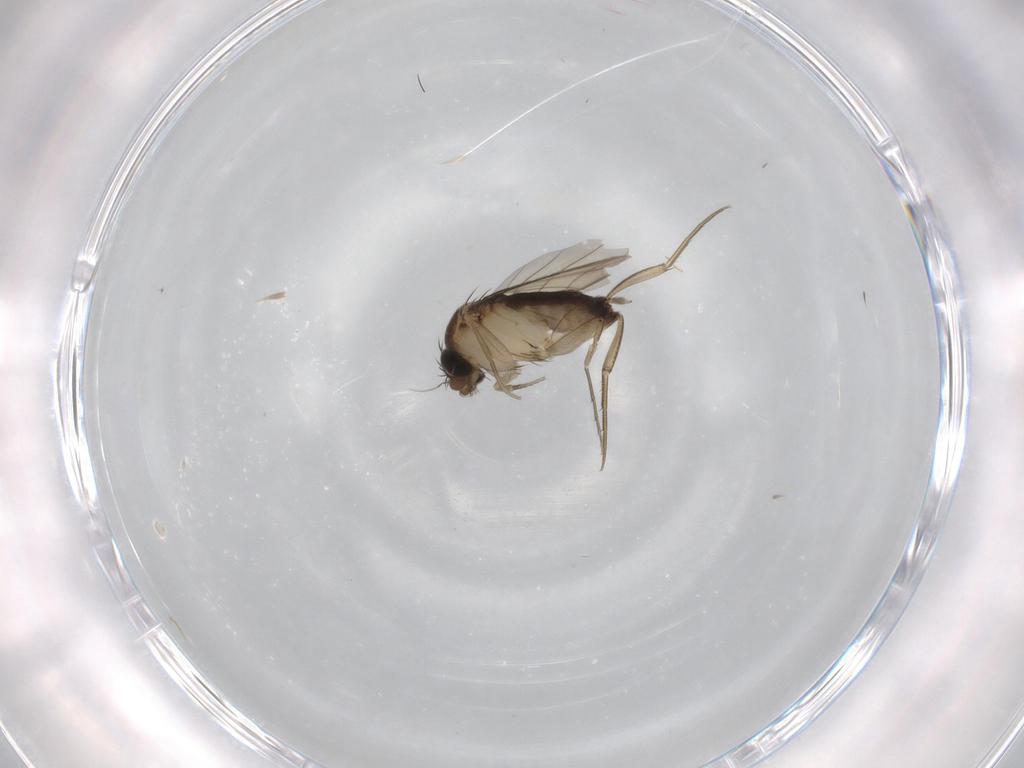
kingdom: Animalia
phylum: Arthropoda
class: Insecta
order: Diptera
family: Phoridae
